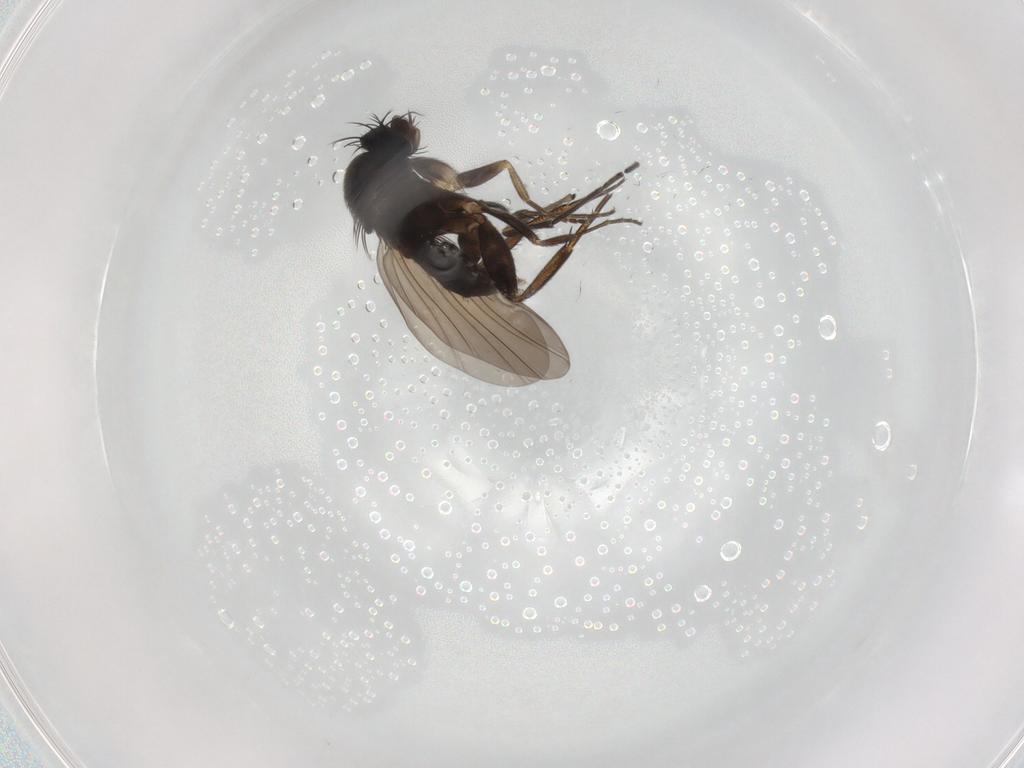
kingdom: Animalia
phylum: Arthropoda
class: Insecta
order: Diptera
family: Phoridae
